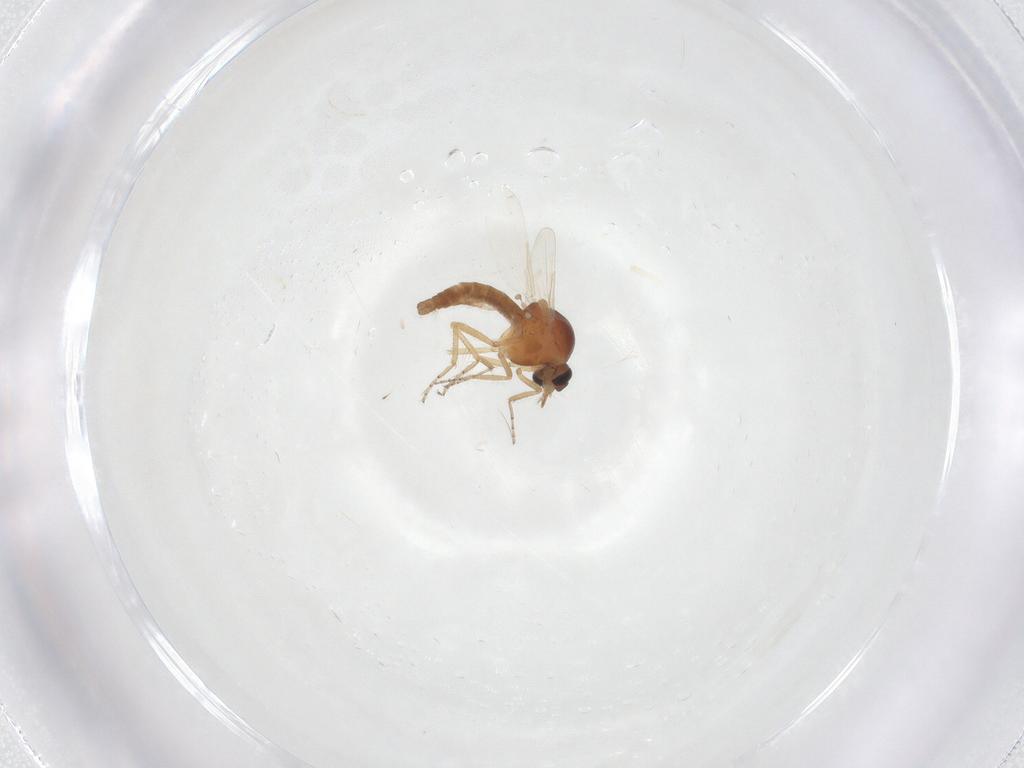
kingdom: Animalia
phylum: Arthropoda
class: Insecta
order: Diptera
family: Ceratopogonidae
